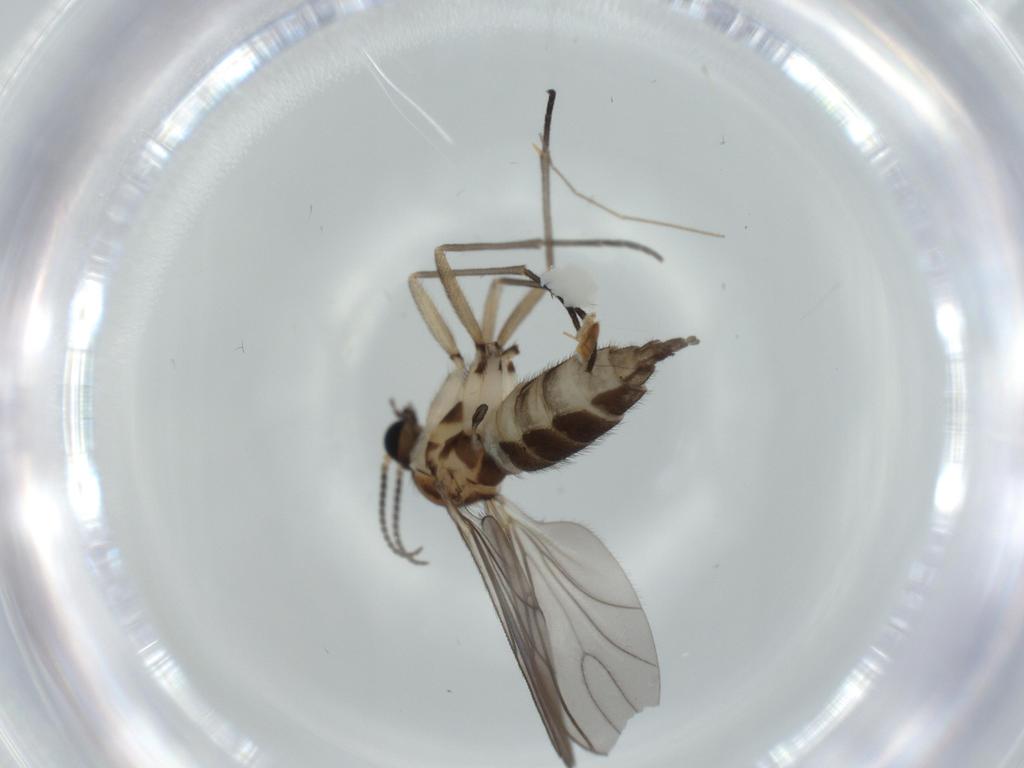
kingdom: Animalia
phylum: Arthropoda
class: Insecta
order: Diptera
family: Sciaridae
